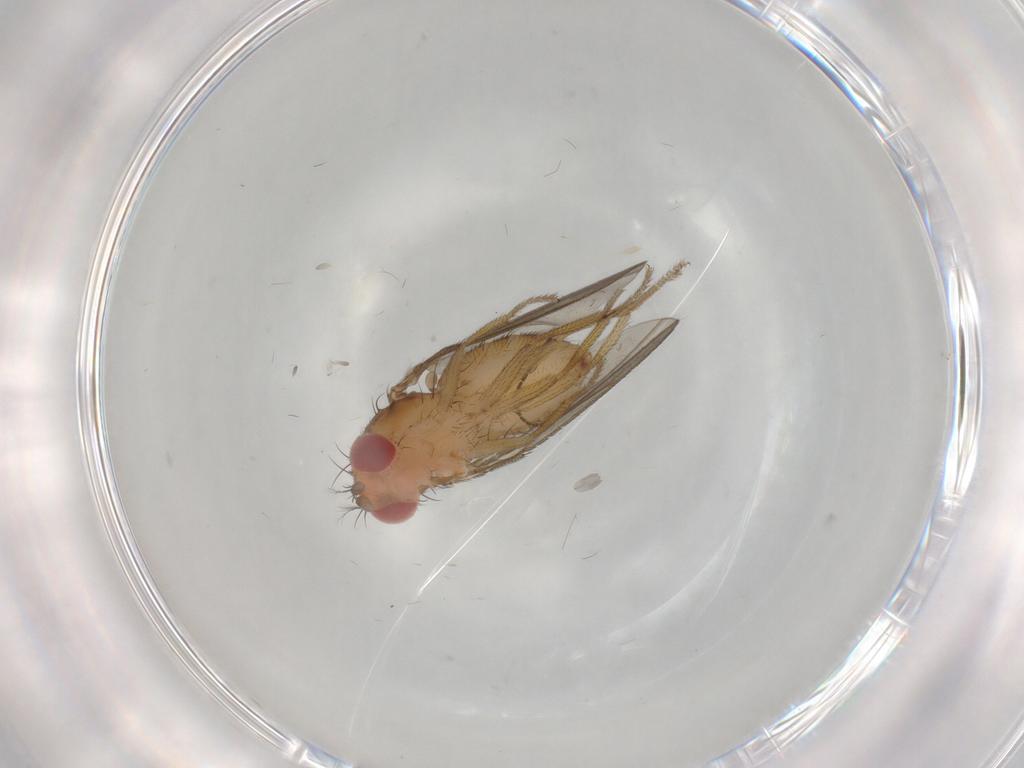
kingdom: Animalia
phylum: Arthropoda
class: Insecta
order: Diptera
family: Drosophilidae
